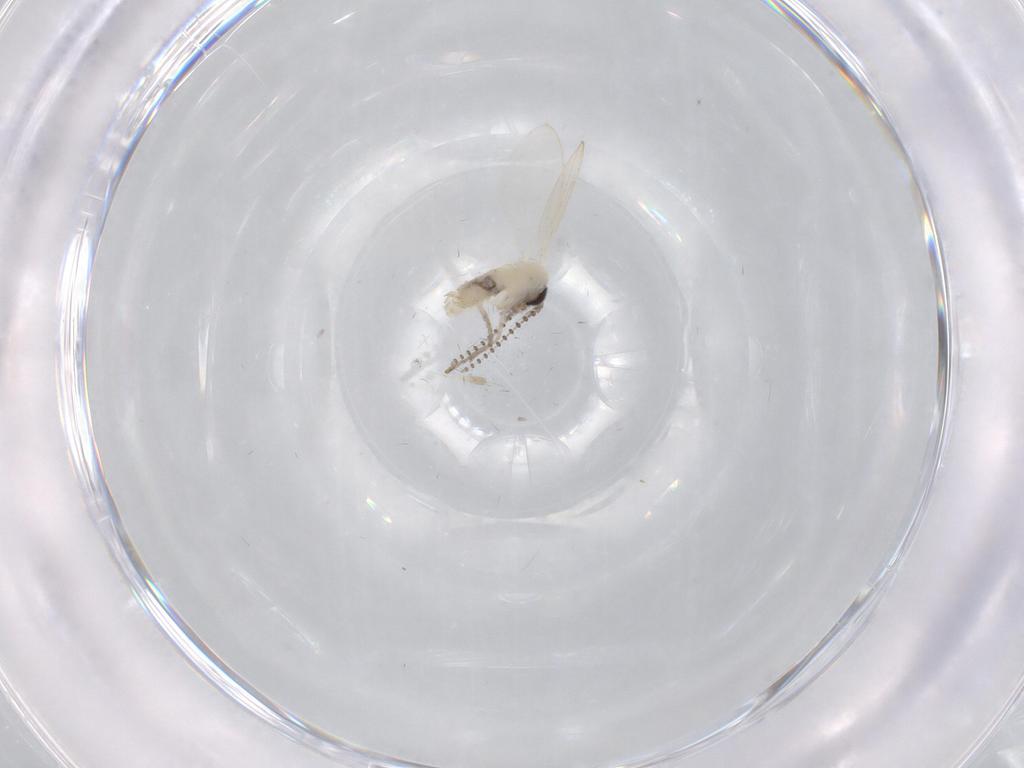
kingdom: Animalia
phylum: Arthropoda
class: Insecta
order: Diptera
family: Psychodidae
